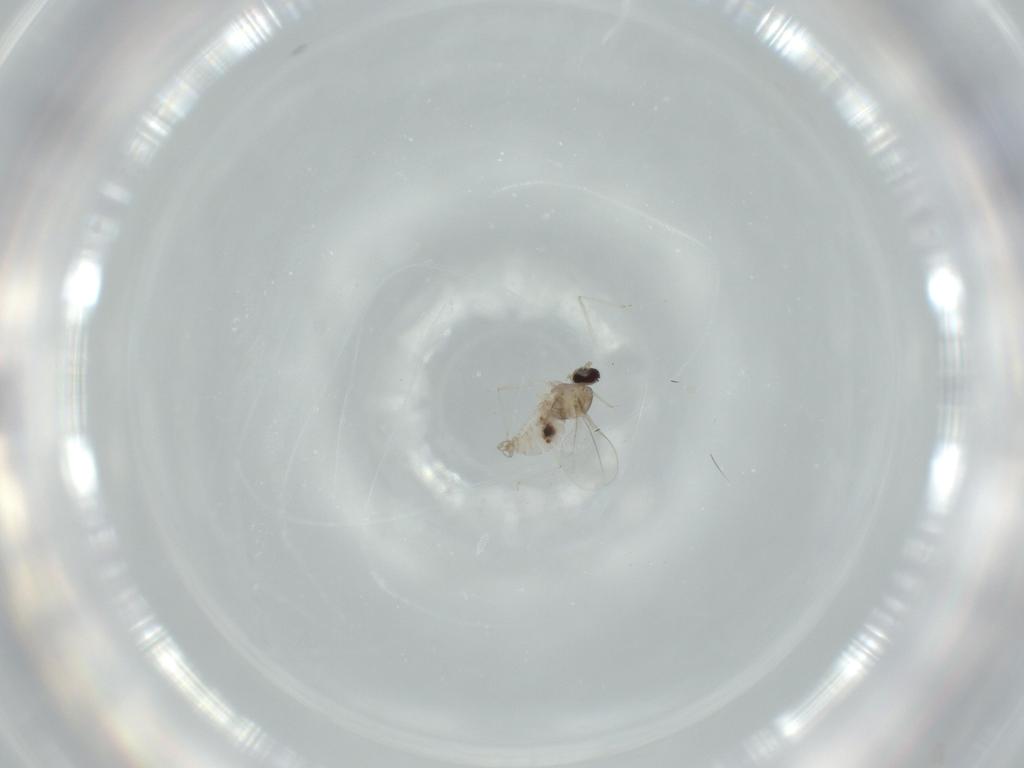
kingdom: Animalia
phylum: Arthropoda
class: Insecta
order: Diptera
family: Cecidomyiidae
